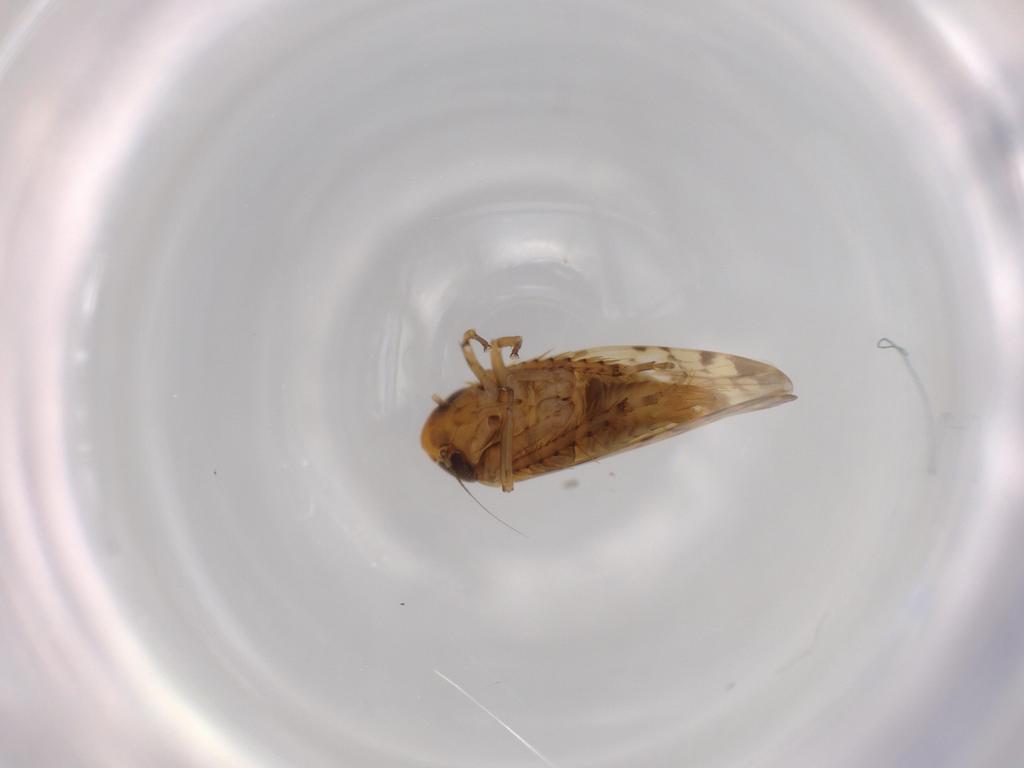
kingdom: Animalia
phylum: Arthropoda
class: Insecta
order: Hemiptera
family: Cicadellidae
